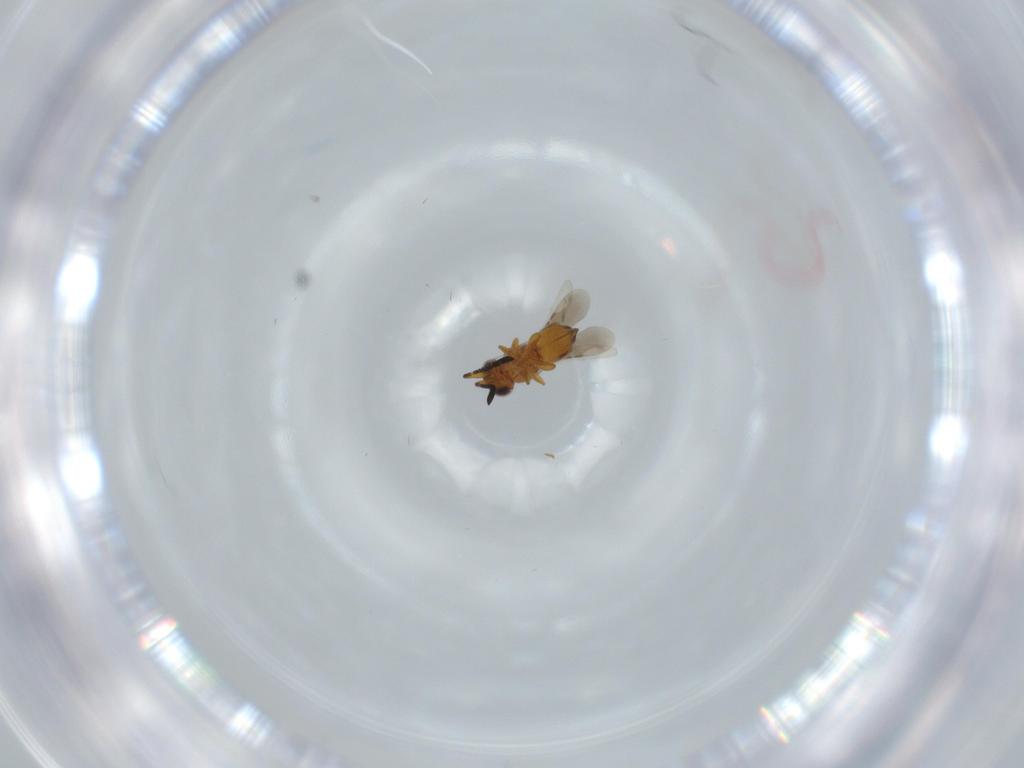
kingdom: Animalia
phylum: Arthropoda
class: Insecta
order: Hymenoptera
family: Ceraphronidae
